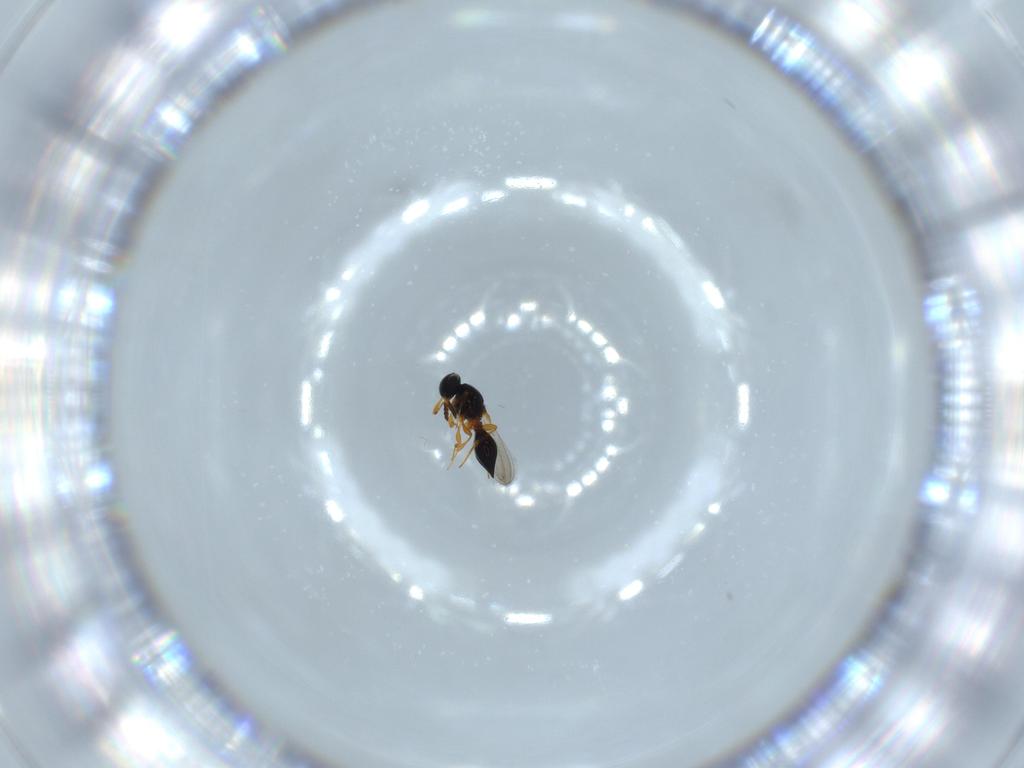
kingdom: Animalia
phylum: Arthropoda
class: Insecta
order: Hymenoptera
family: Platygastridae
